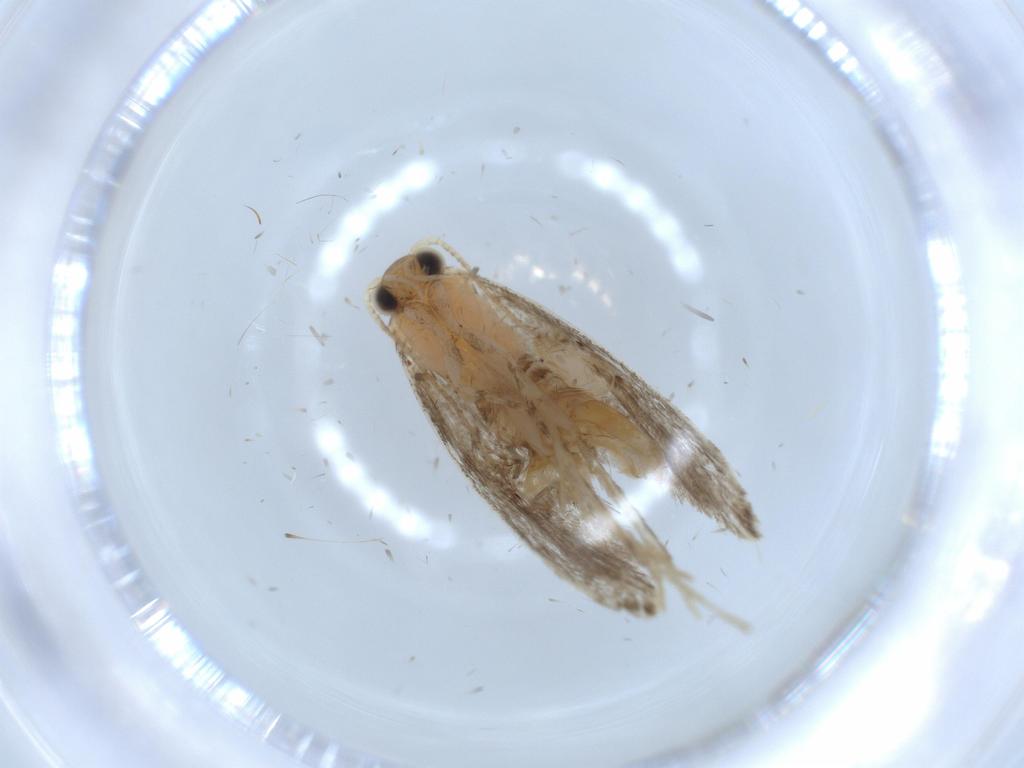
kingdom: Animalia
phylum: Arthropoda
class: Insecta
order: Lepidoptera
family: Tineidae
